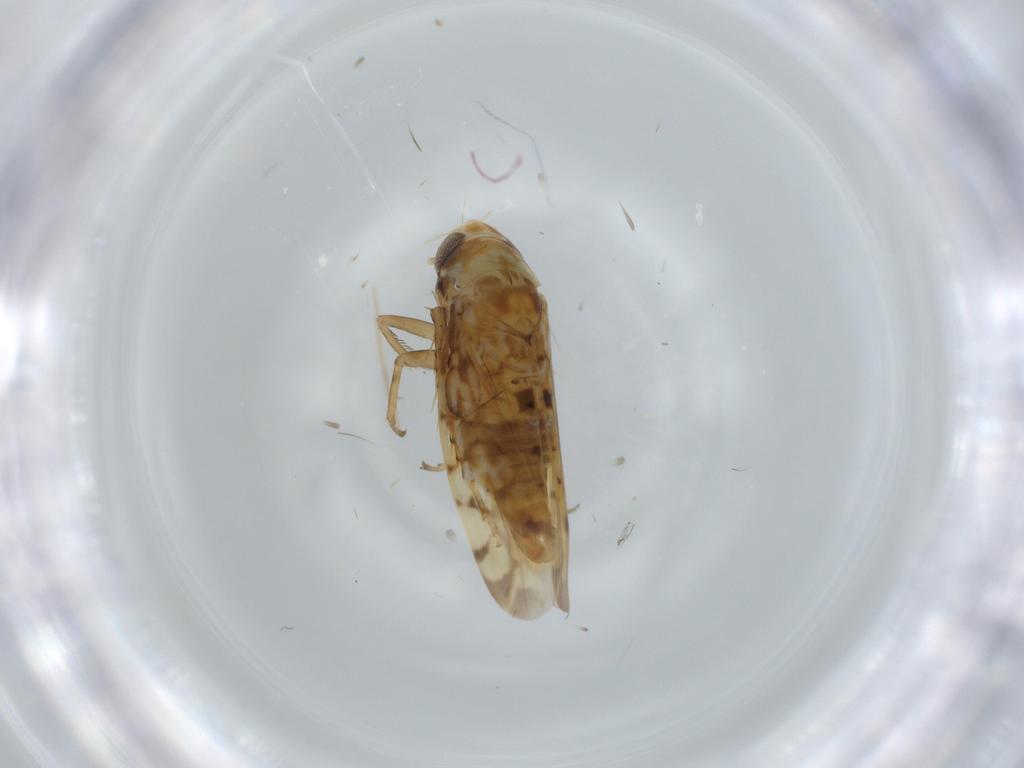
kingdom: Animalia
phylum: Arthropoda
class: Insecta
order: Hemiptera
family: Cicadellidae
